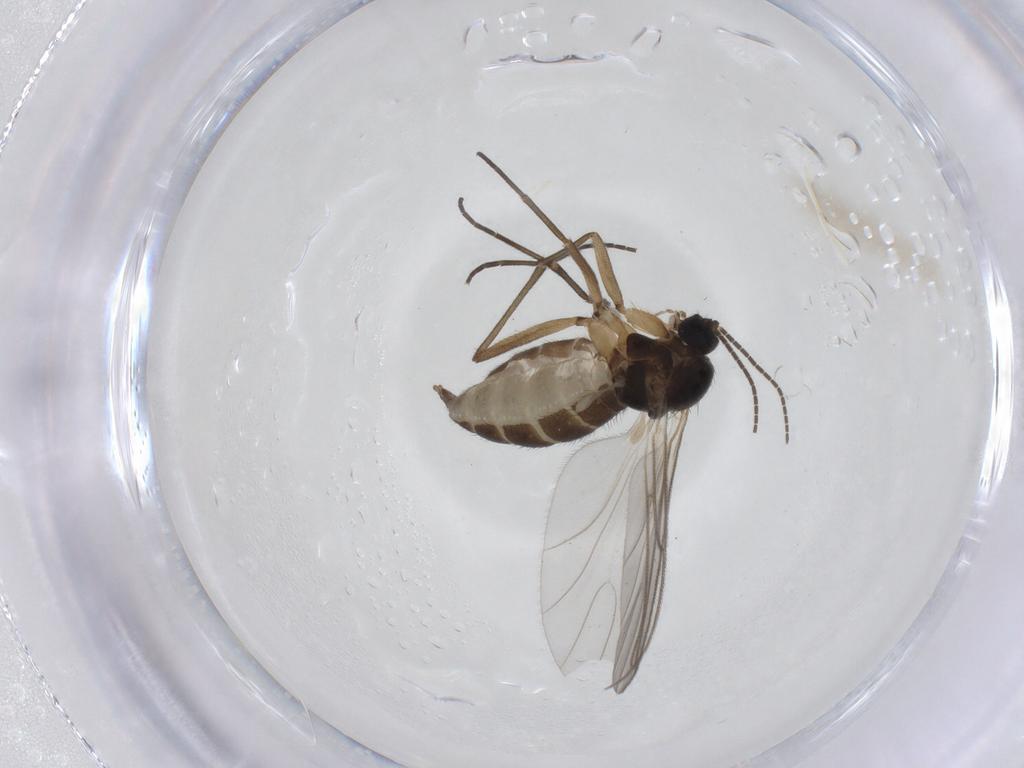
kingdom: Animalia
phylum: Arthropoda
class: Insecta
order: Diptera
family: Sciaridae
